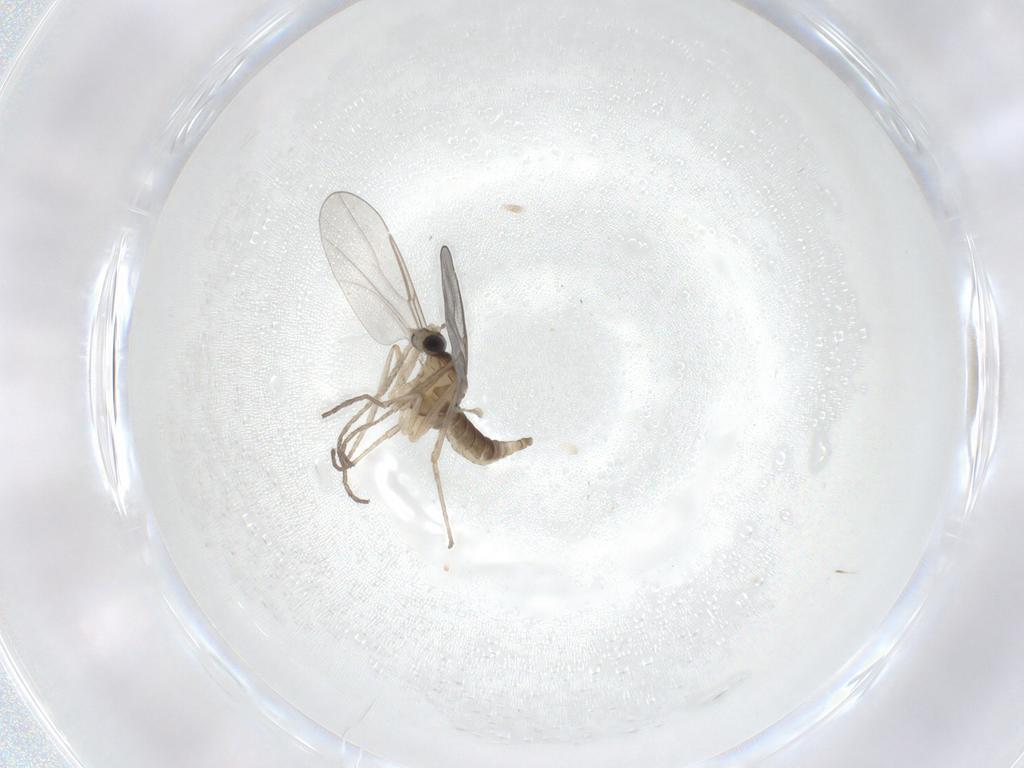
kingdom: Animalia
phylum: Arthropoda
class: Insecta
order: Diptera
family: Cecidomyiidae
